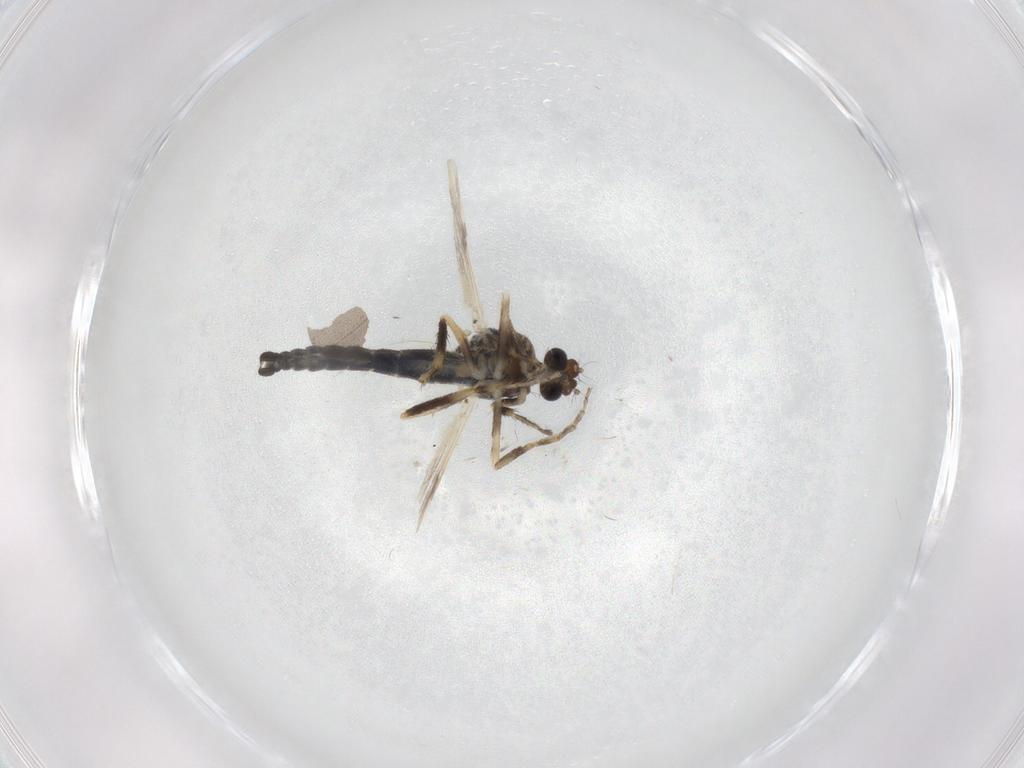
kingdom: Animalia
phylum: Arthropoda
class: Insecta
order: Diptera
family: Ceratopogonidae
